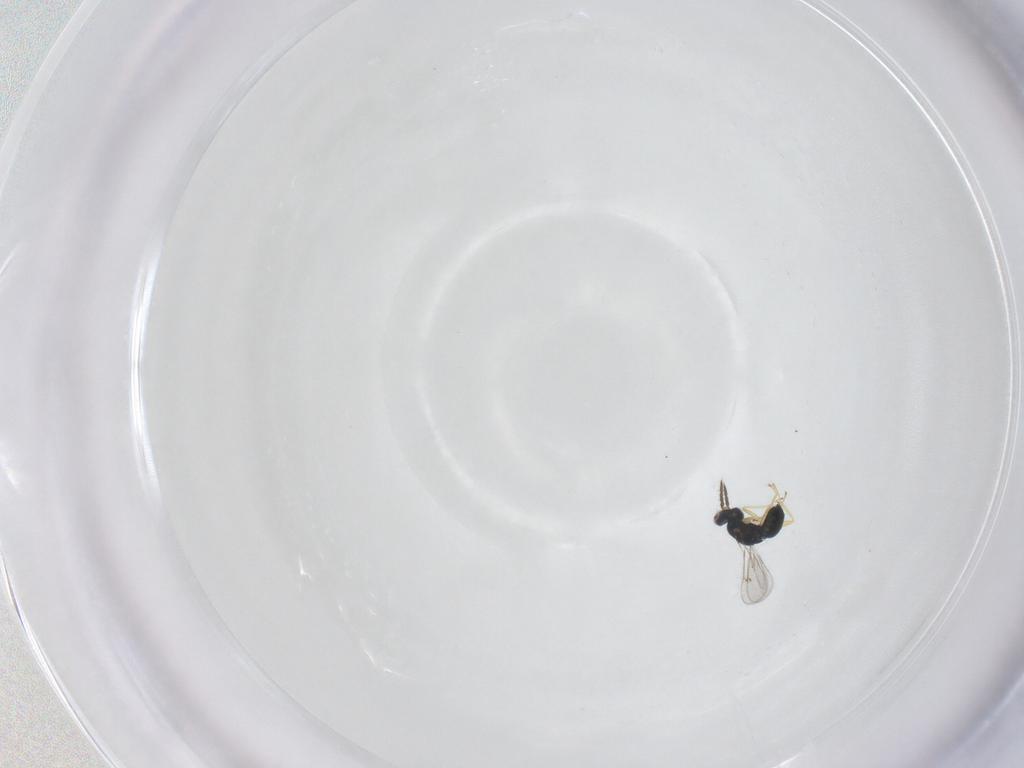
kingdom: Animalia
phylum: Arthropoda
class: Insecta
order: Hymenoptera
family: Eulophidae
